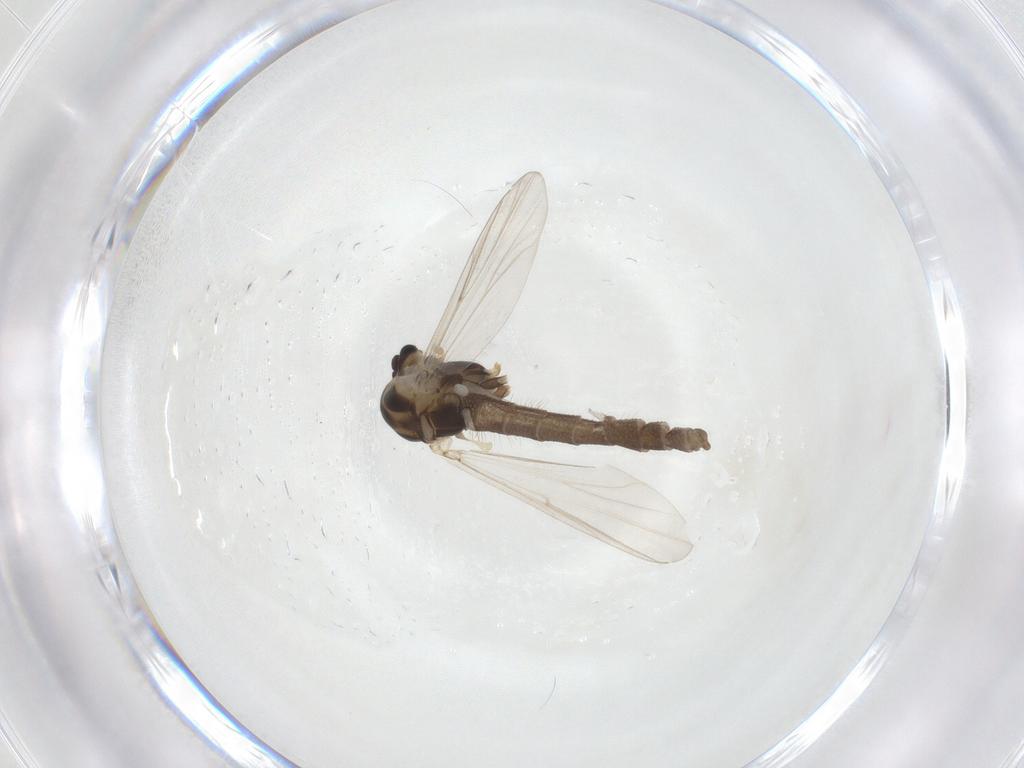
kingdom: Animalia
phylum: Arthropoda
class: Insecta
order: Diptera
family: Chironomidae
